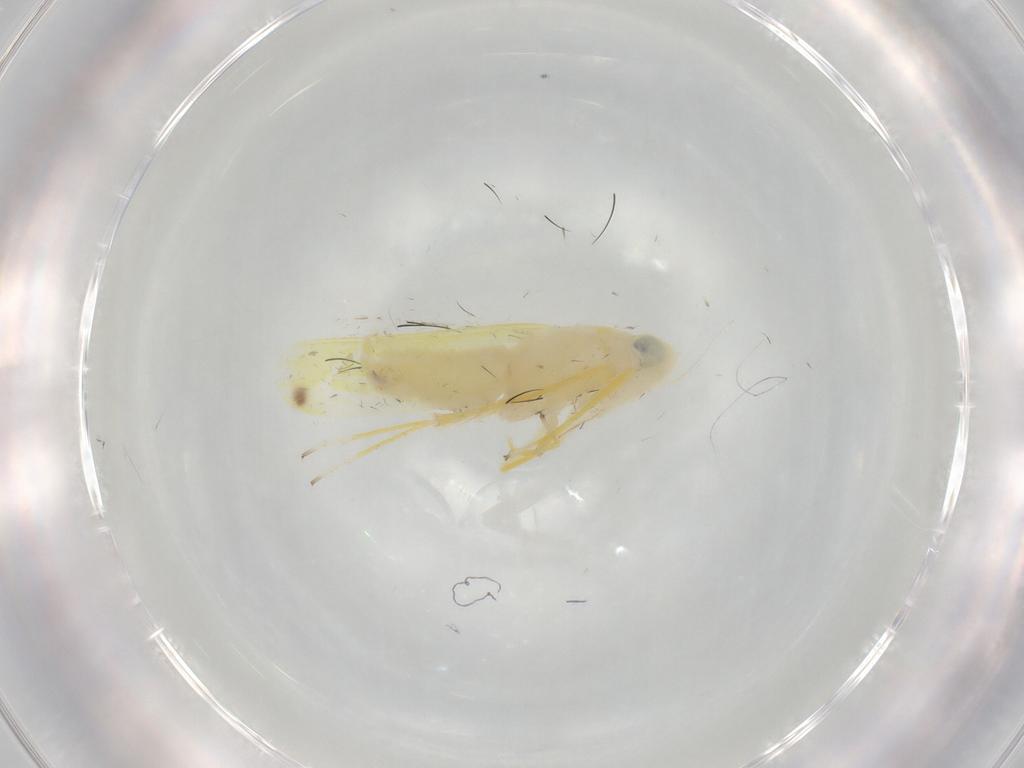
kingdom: Animalia
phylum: Arthropoda
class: Insecta
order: Hemiptera
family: Cicadellidae
